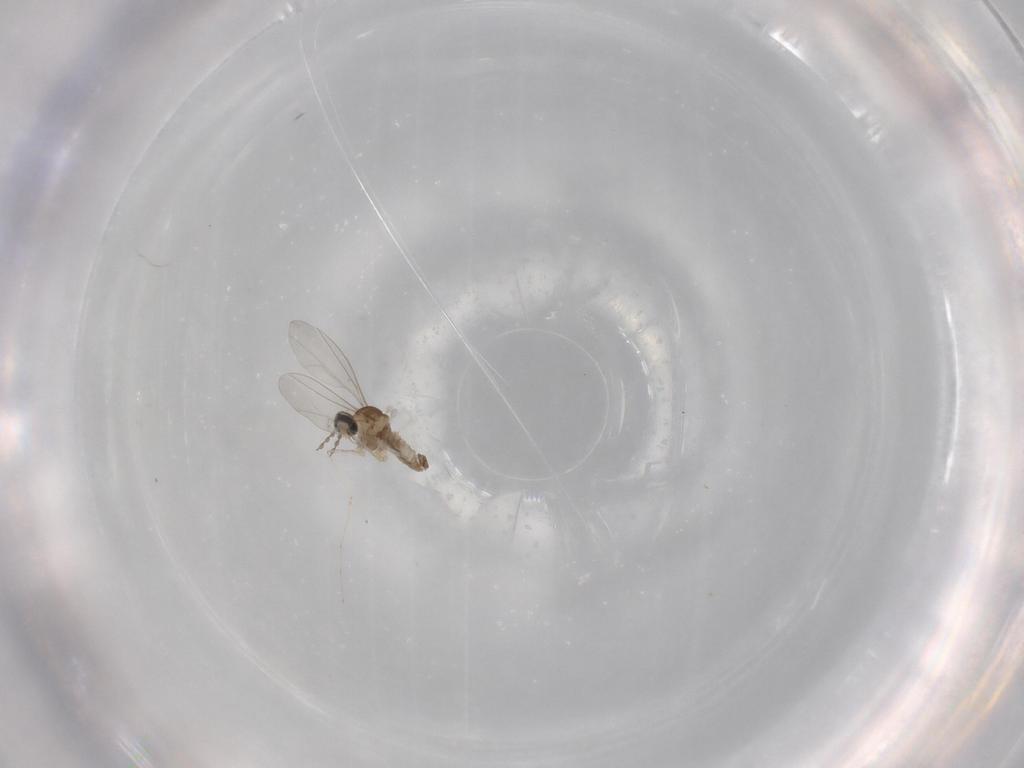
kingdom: Animalia
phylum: Arthropoda
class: Insecta
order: Diptera
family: Cecidomyiidae
